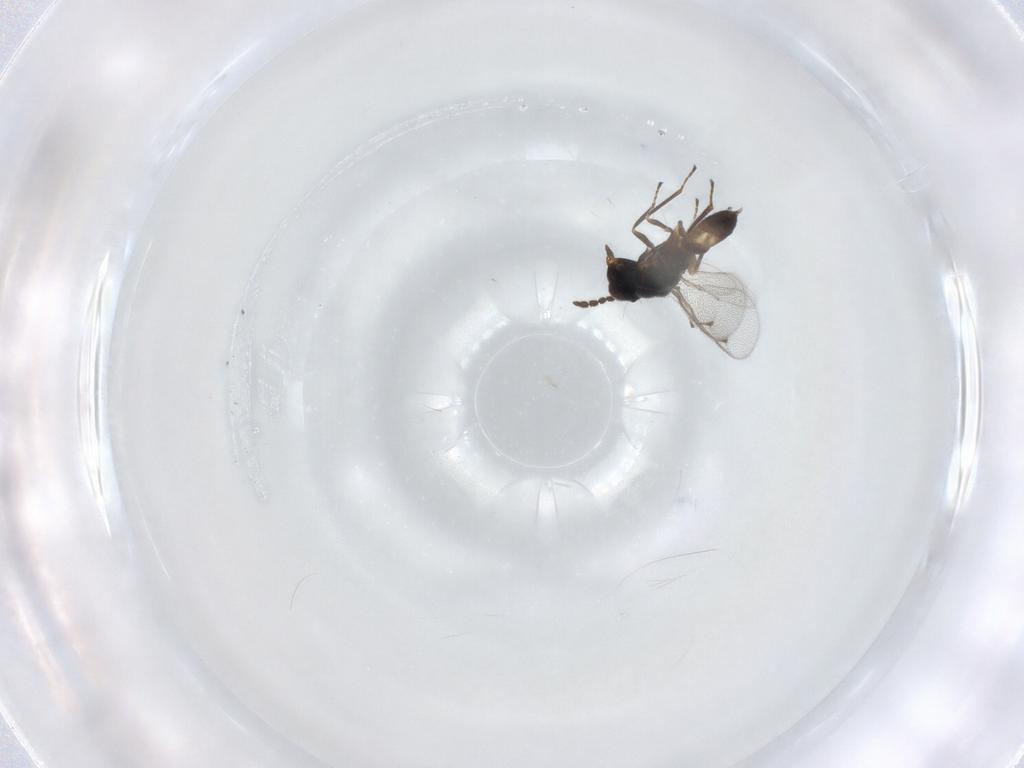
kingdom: Animalia
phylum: Arthropoda
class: Insecta
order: Hymenoptera
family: Eulophidae
